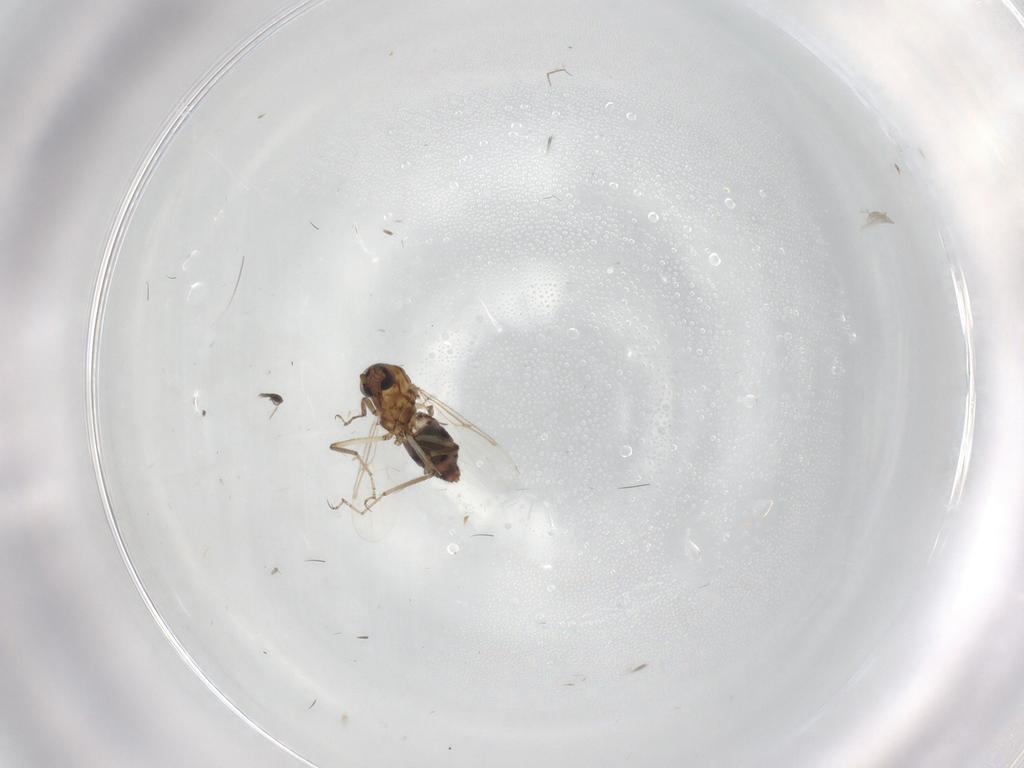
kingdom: Animalia
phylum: Arthropoda
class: Insecta
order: Diptera
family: Ceratopogonidae
